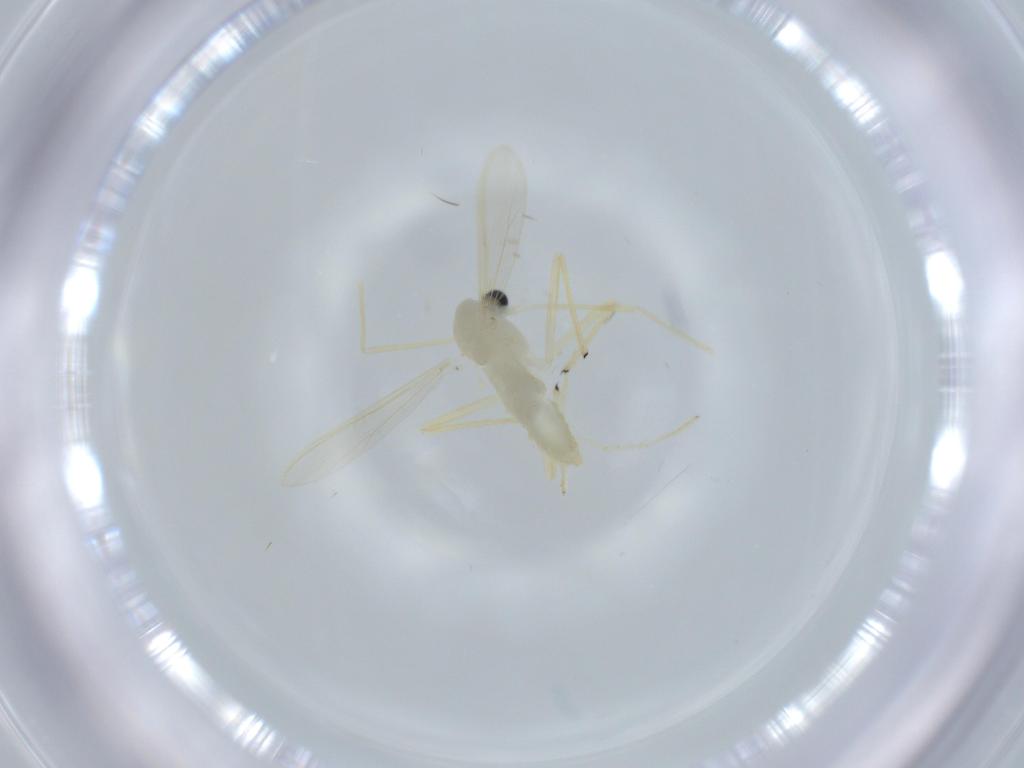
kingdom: Animalia
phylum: Arthropoda
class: Insecta
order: Diptera
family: Chironomidae
